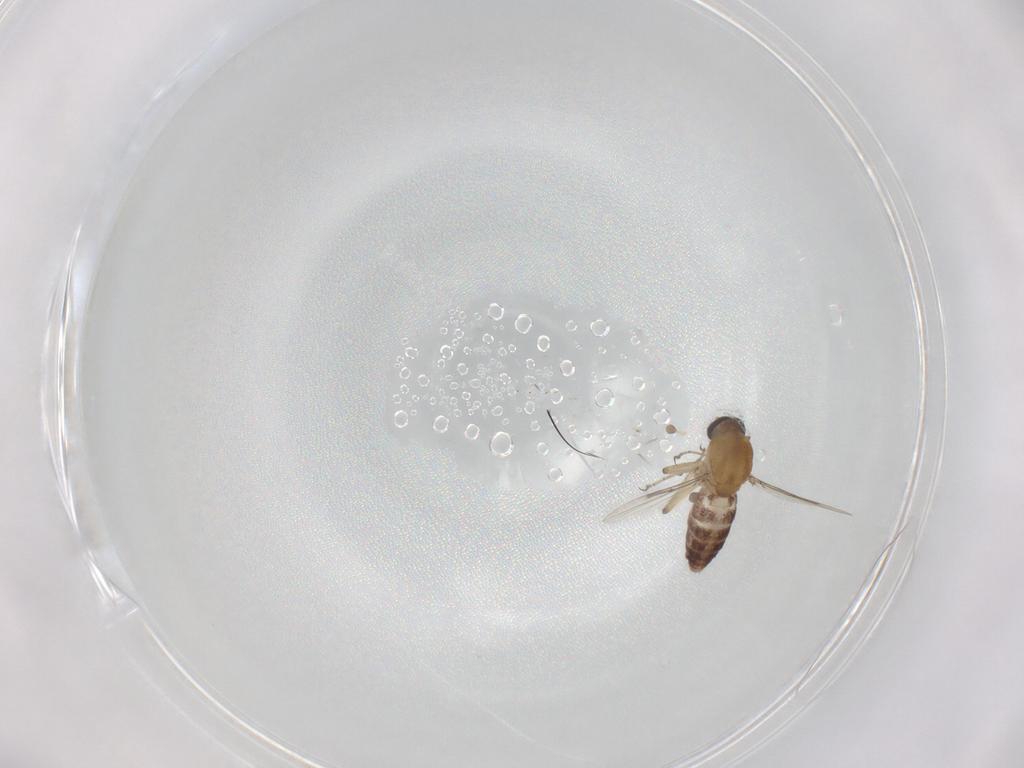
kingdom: Animalia
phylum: Arthropoda
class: Insecta
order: Diptera
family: Ceratopogonidae
